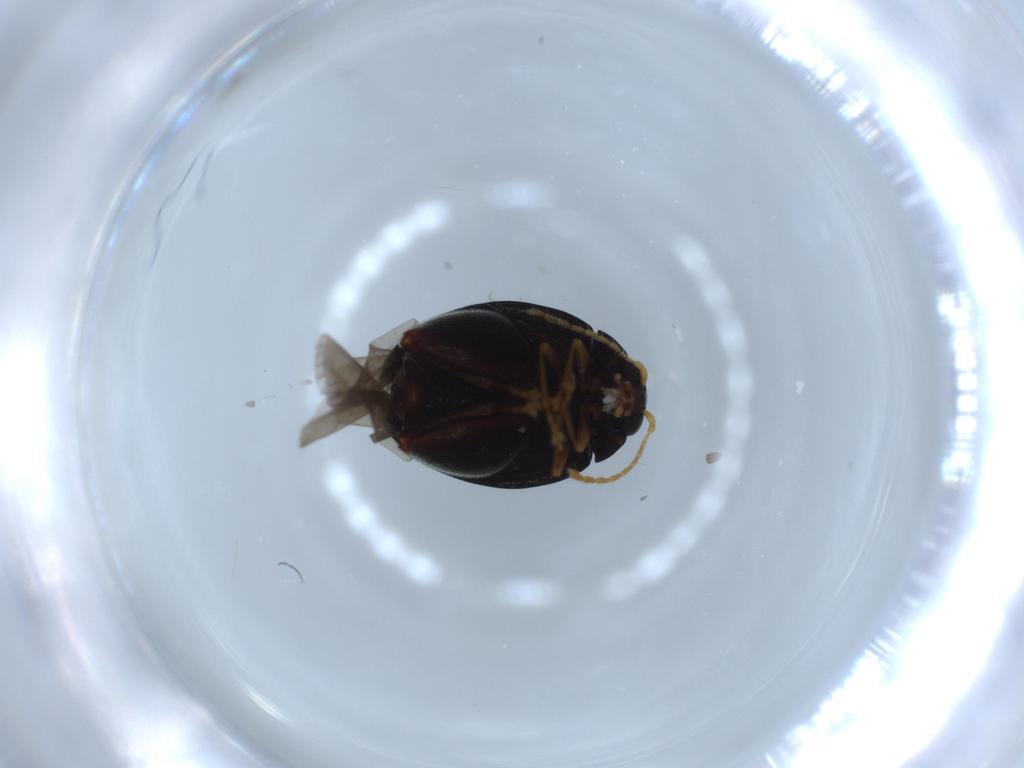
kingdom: Animalia
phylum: Arthropoda
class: Insecta
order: Coleoptera
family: Chrysomelidae
